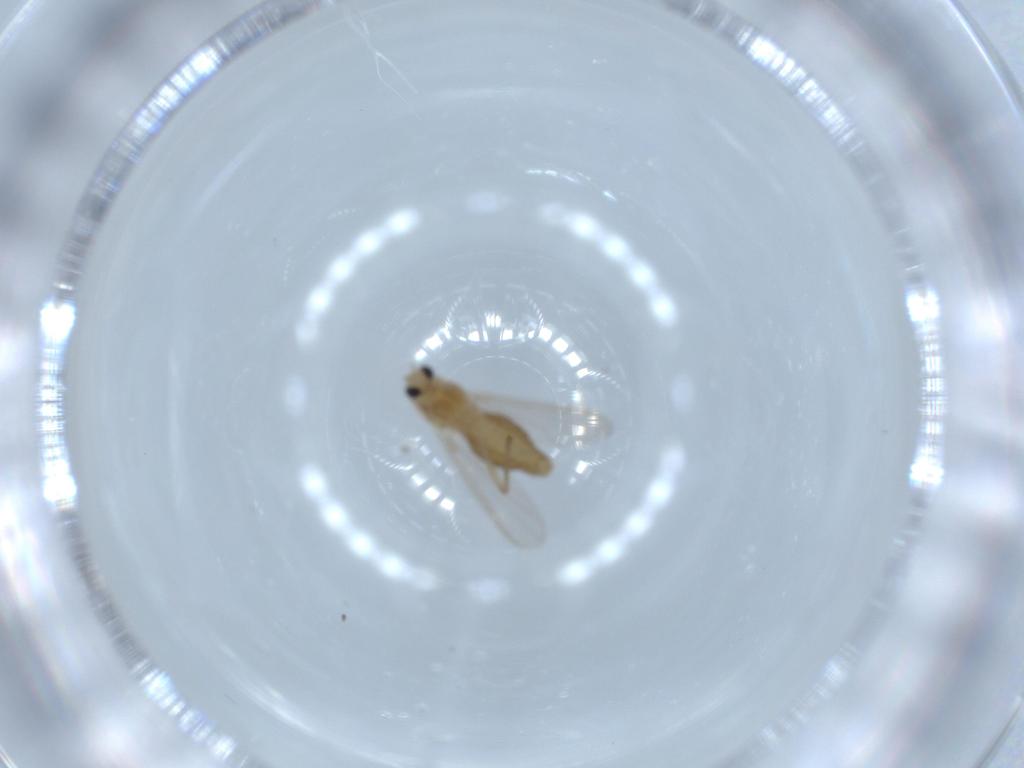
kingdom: Animalia
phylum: Arthropoda
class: Insecta
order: Diptera
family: Chironomidae
